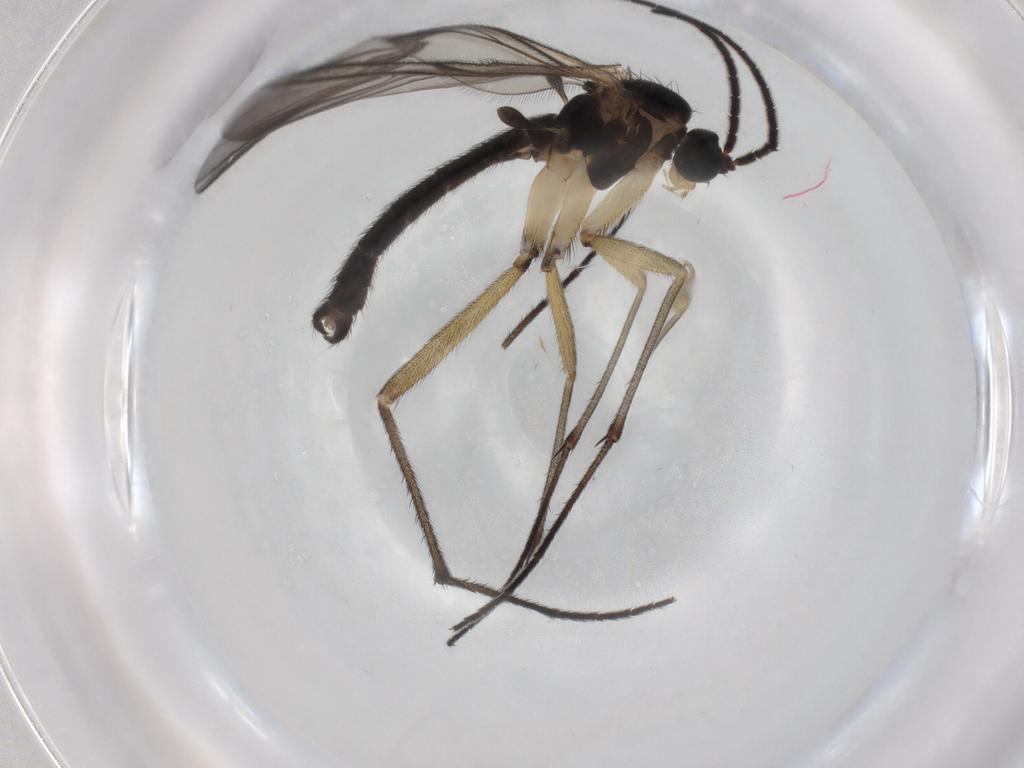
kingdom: Animalia
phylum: Arthropoda
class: Insecta
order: Diptera
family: Sciaridae
